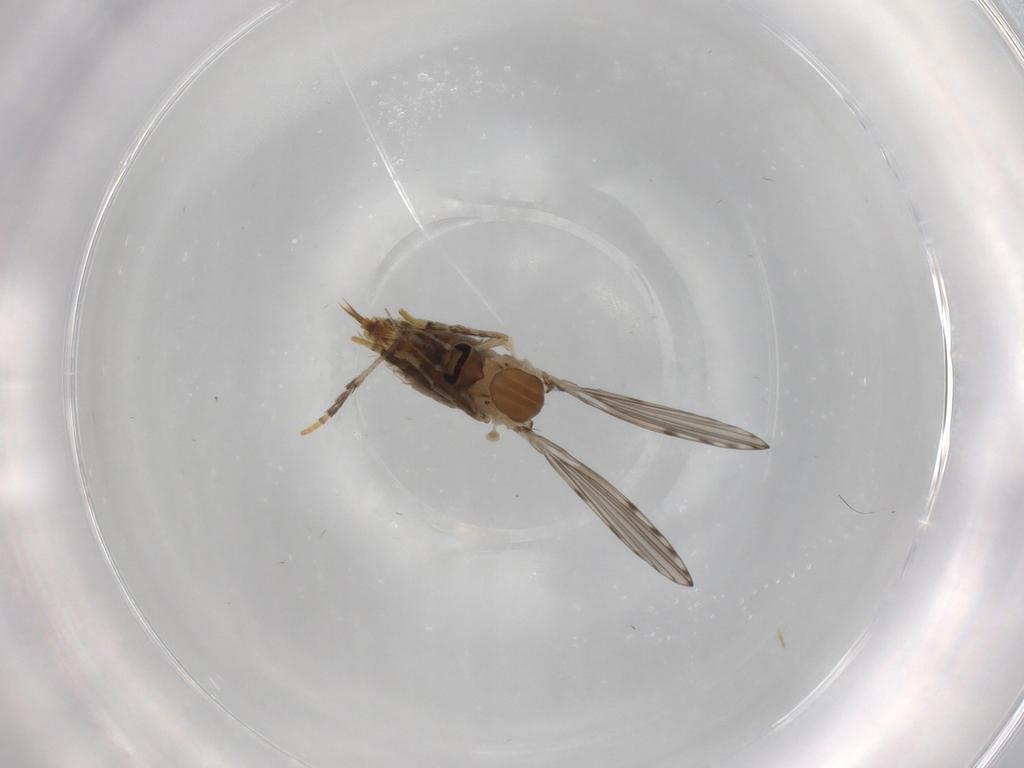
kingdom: Animalia
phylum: Arthropoda
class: Insecta
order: Diptera
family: Psychodidae
